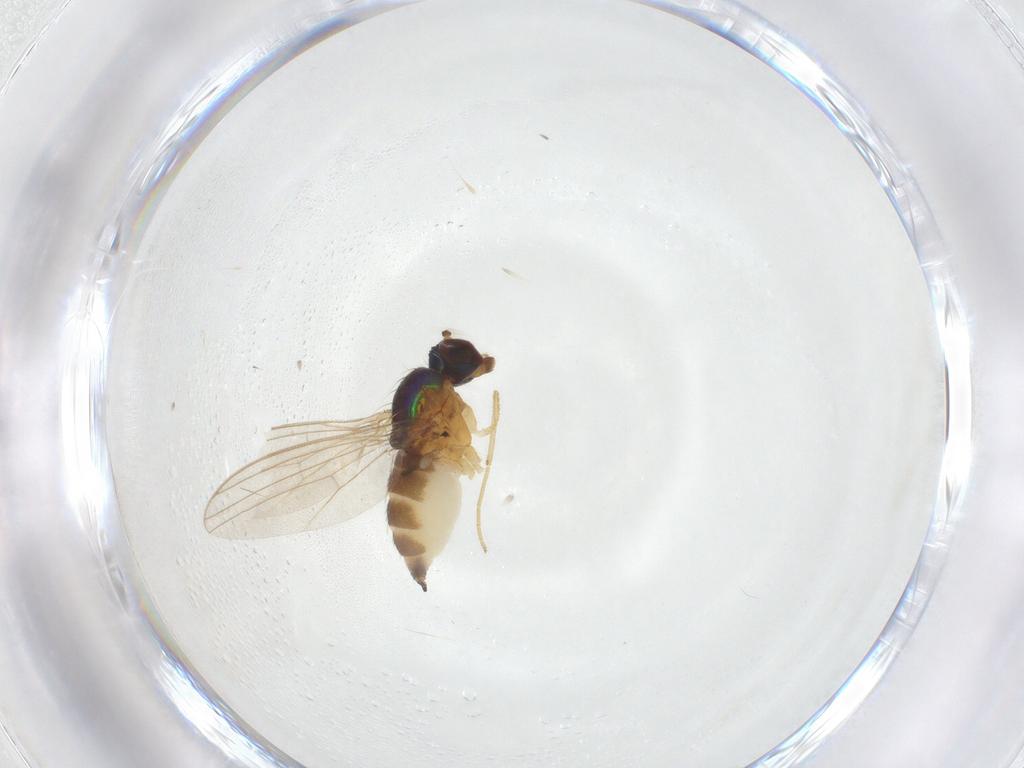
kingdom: Animalia
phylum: Arthropoda
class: Insecta
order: Diptera
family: Dolichopodidae
